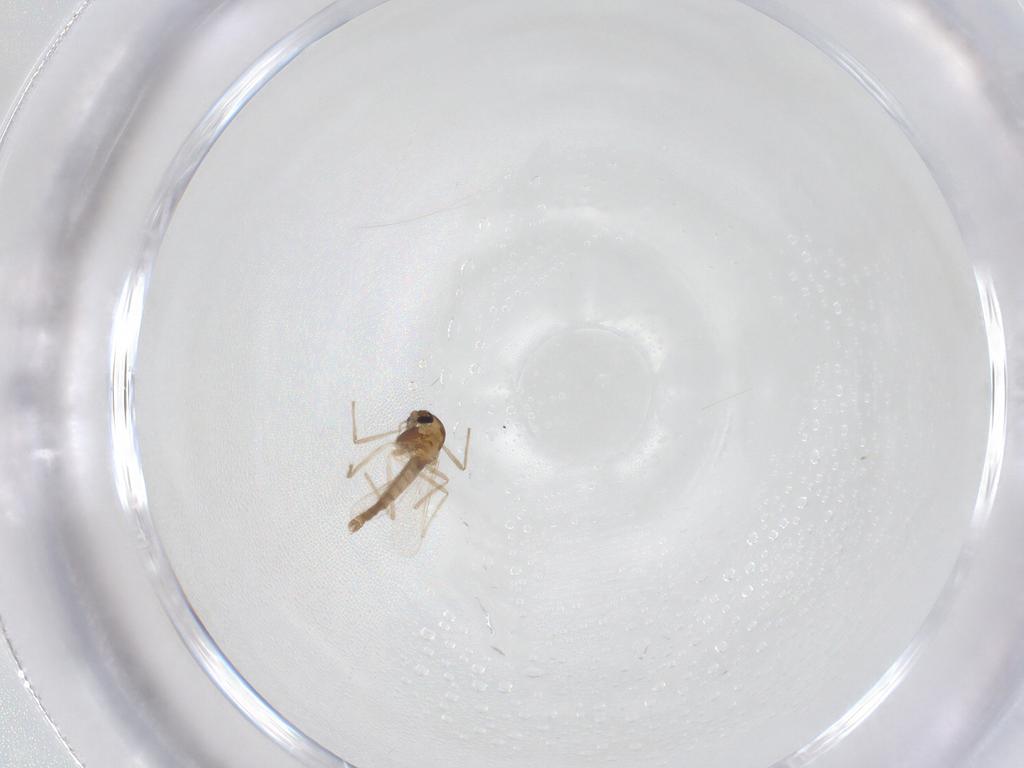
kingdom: Animalia
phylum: Arthropoda
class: Insecta
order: Diptera
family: Chironomidae
